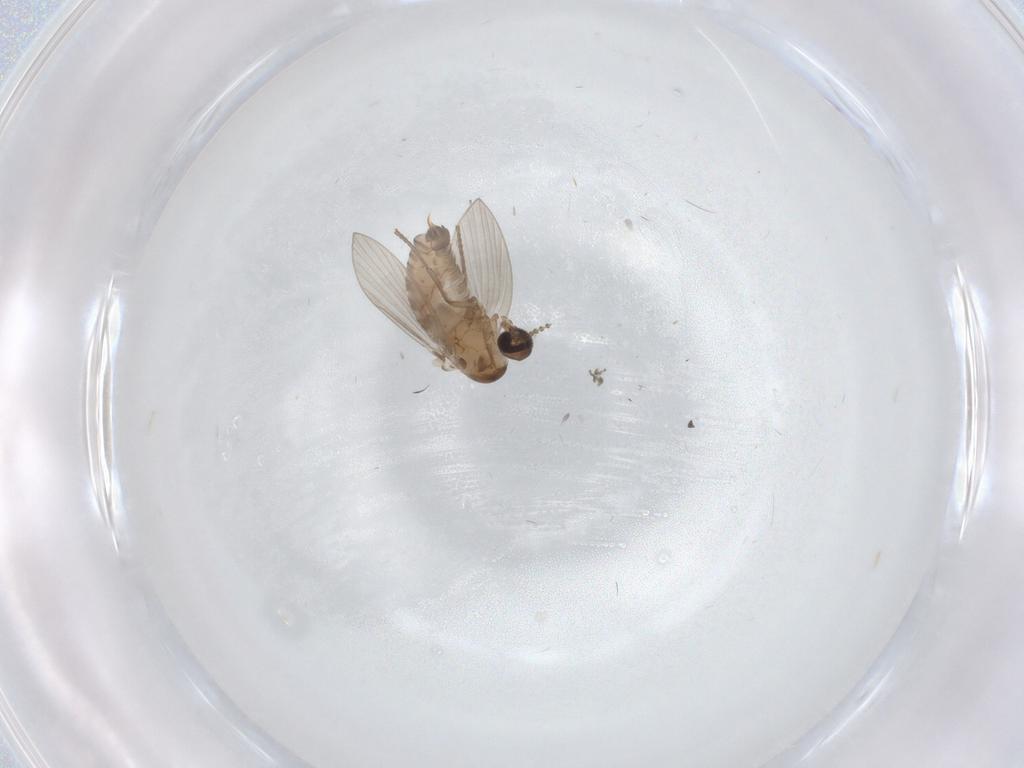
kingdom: Animalia
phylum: Arthropoda
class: Insecta
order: Diptera
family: Psychodidae
